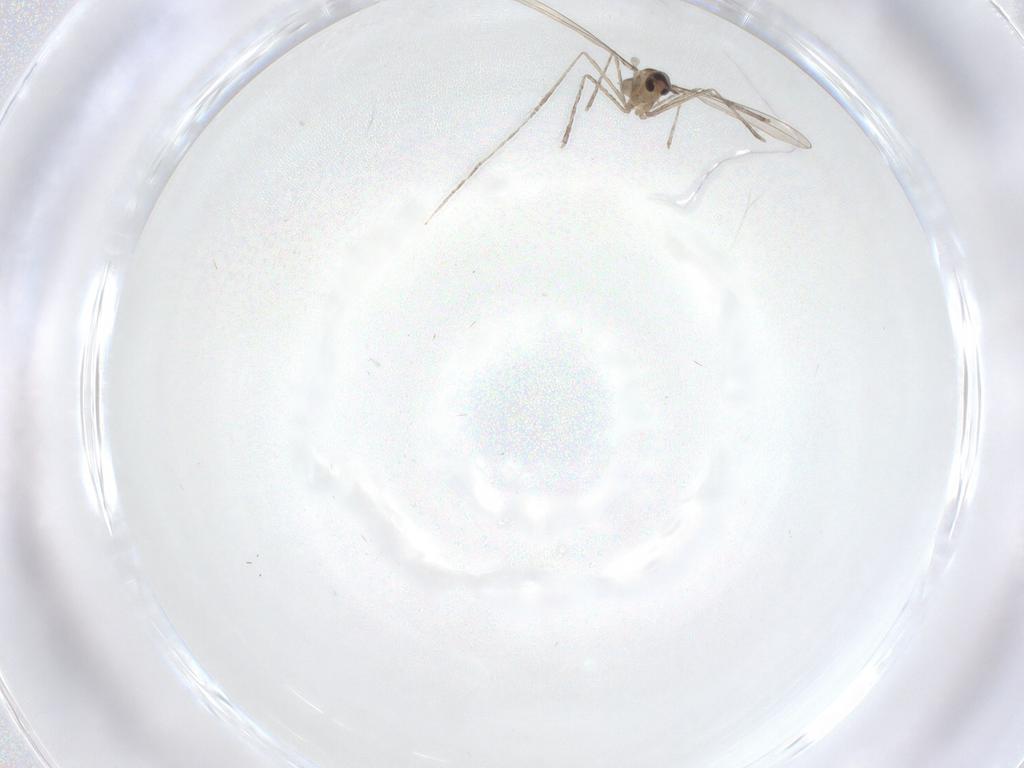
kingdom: Animalia
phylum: Arthropoda
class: Insecta
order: Diptera
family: Cecidomyiidae
